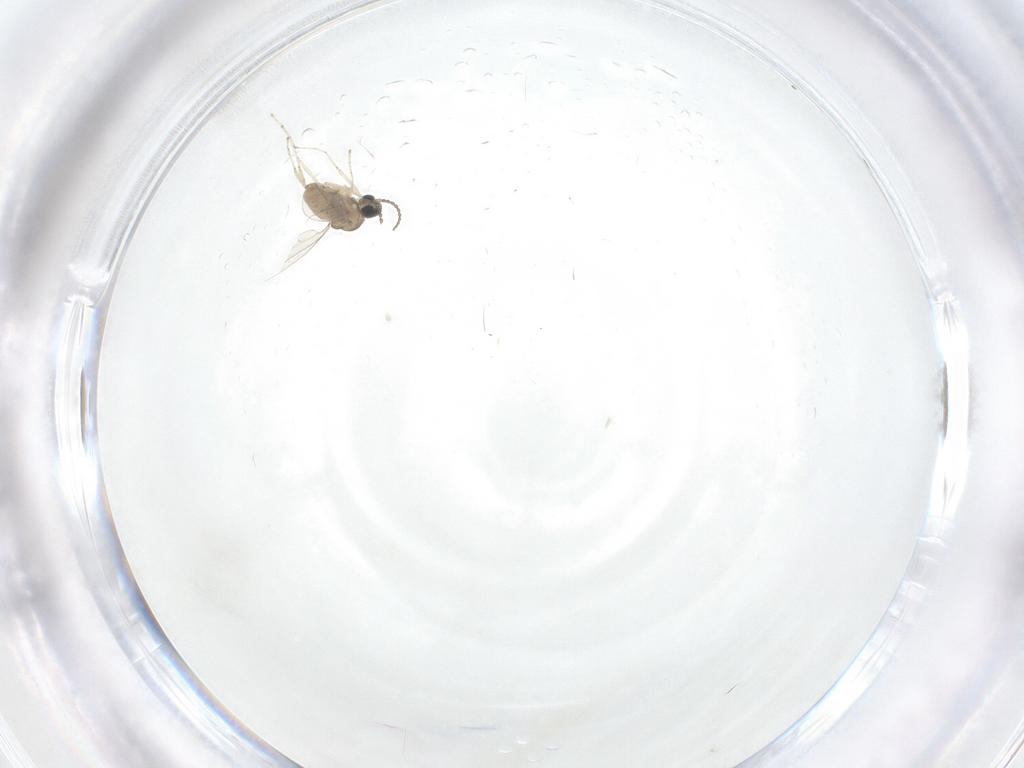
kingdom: Animalia
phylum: Arthropoda
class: Insecta
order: Diptera
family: Cecidomyiidae
